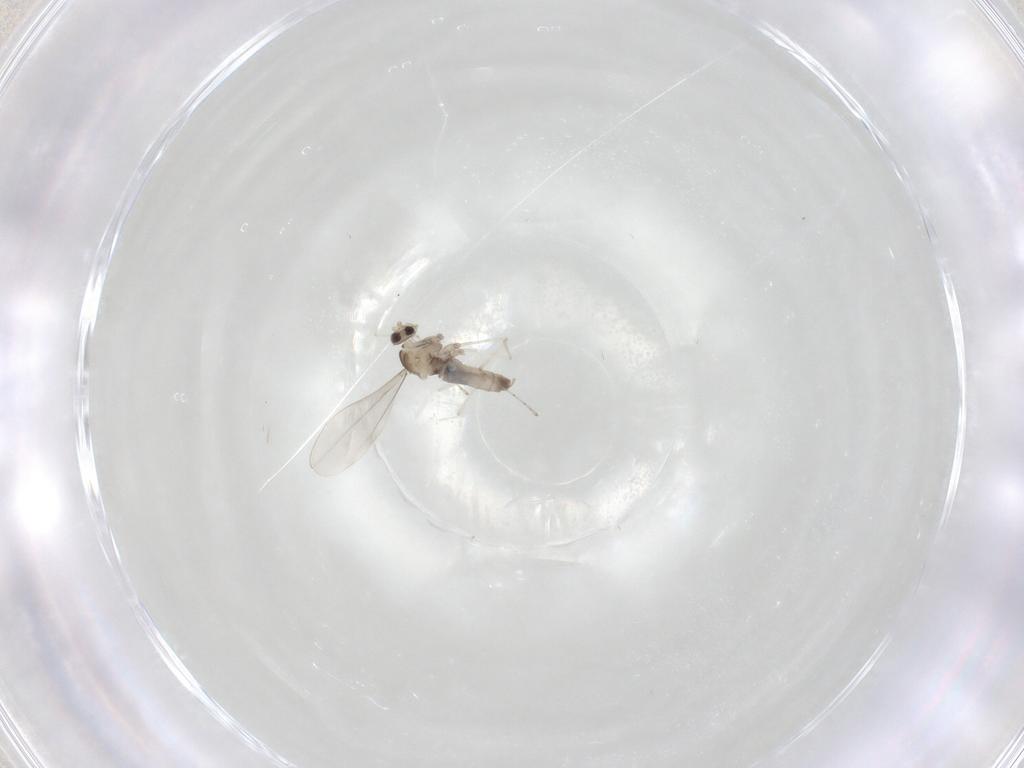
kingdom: Animalia
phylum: Arthropoda
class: Insecta
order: Diptera
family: Cecidomyiidae
